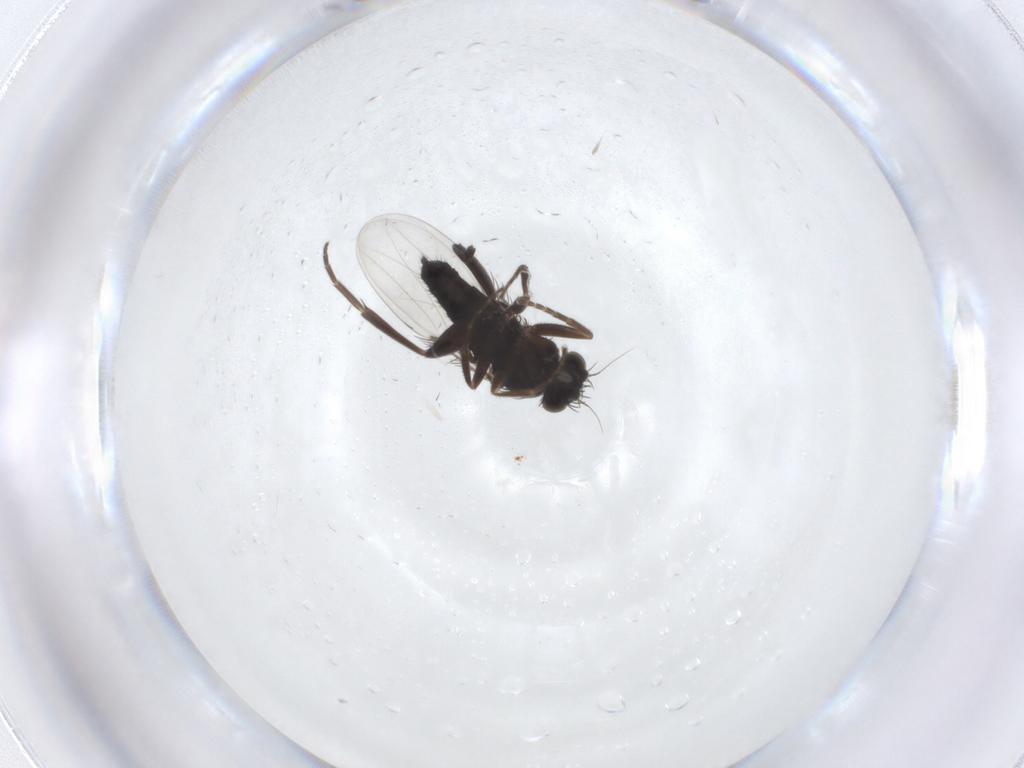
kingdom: Animalia
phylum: Arthropoda
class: Insecta
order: Diptera
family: Phoridae
